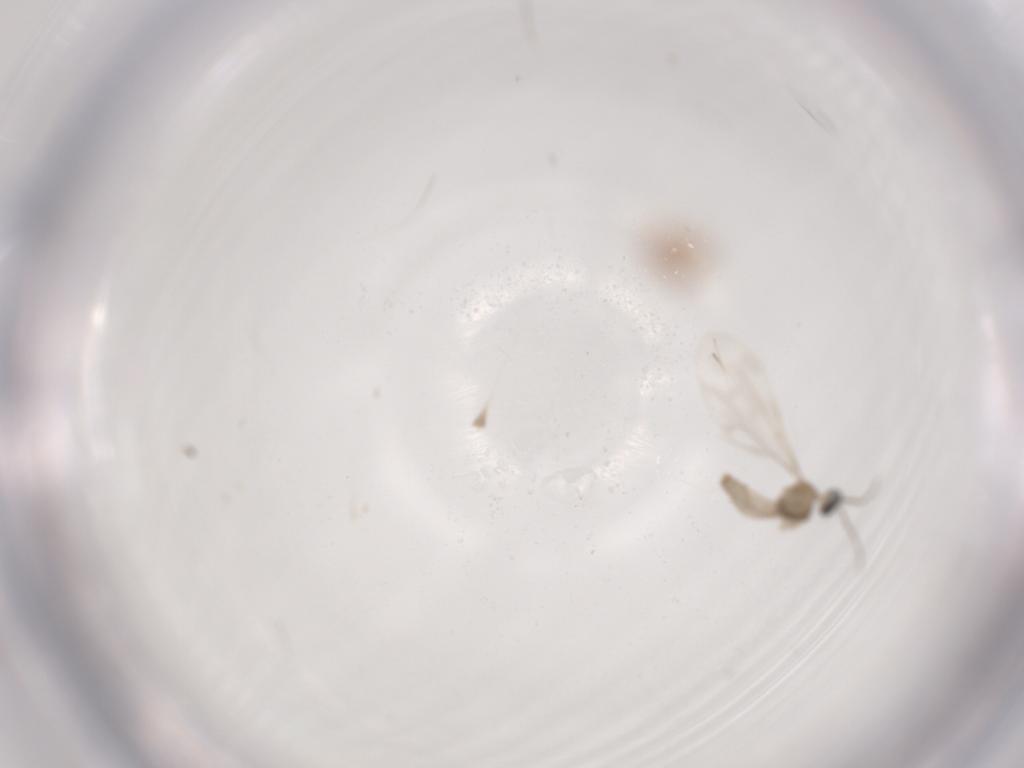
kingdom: Animalia
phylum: Arthropoda
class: Insecta
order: Diptera
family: Cecidomyiidae
